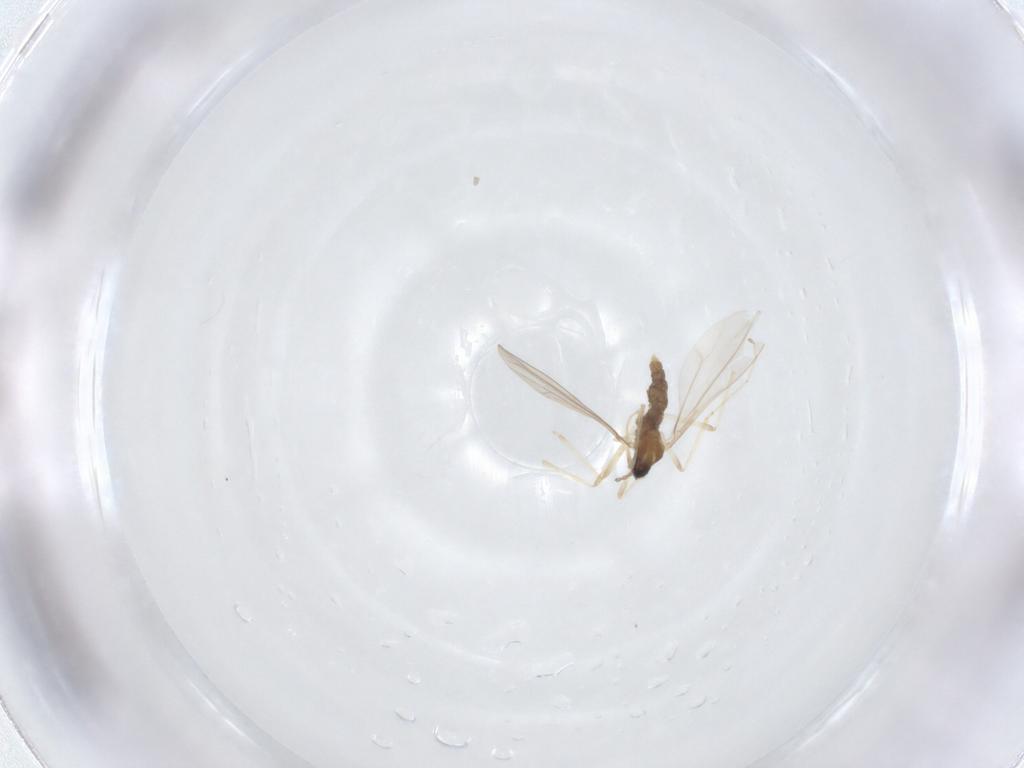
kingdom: Animalia
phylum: Arthropoda
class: Insecta
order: Diptera
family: Cecidomyiidae
